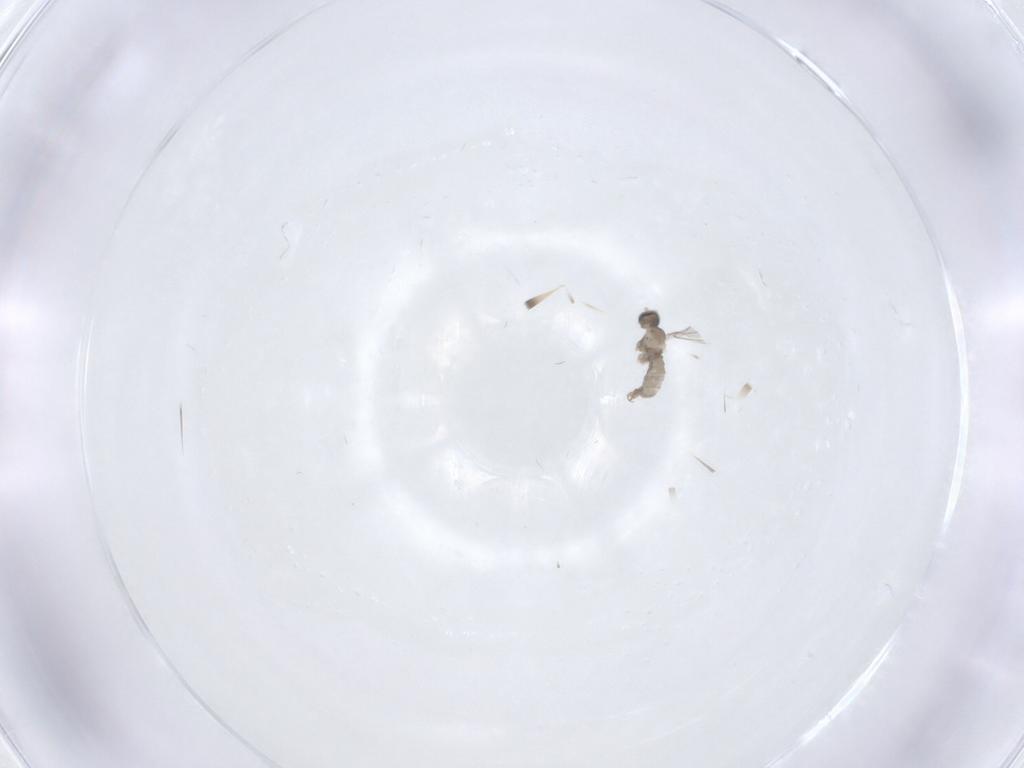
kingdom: Animalia
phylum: Arthropoda
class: Insecta
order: Diptera
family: Chironomidae
